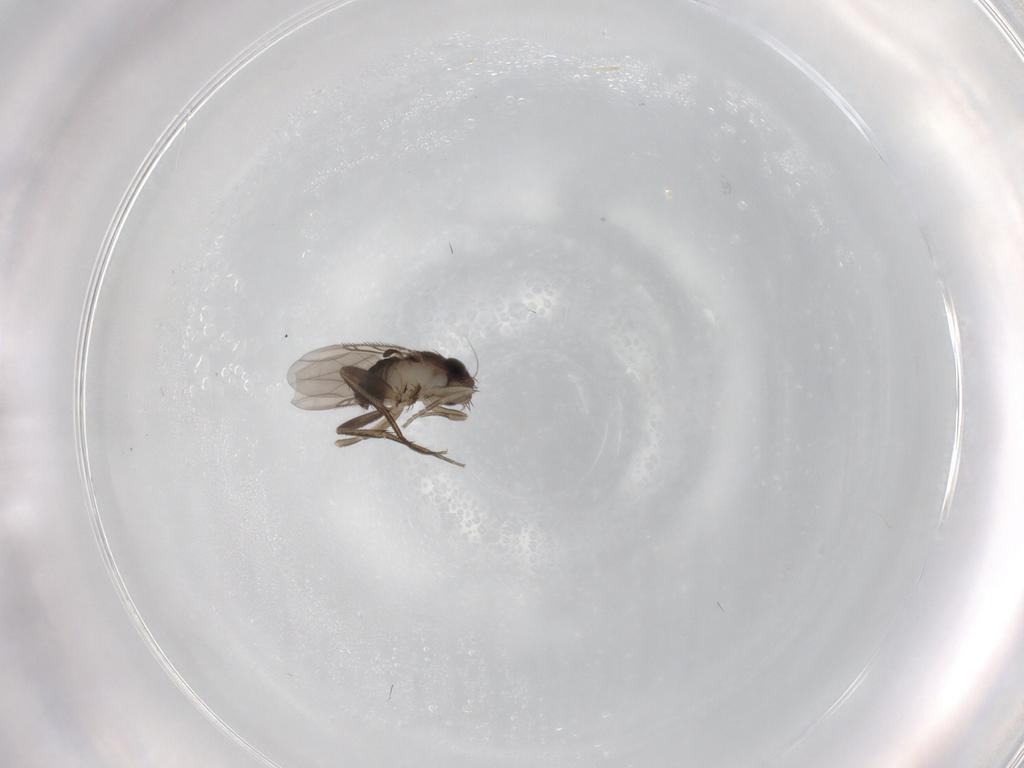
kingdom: Animalia
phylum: Arthropoda
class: Insecta
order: Diptera
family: Phoridae
